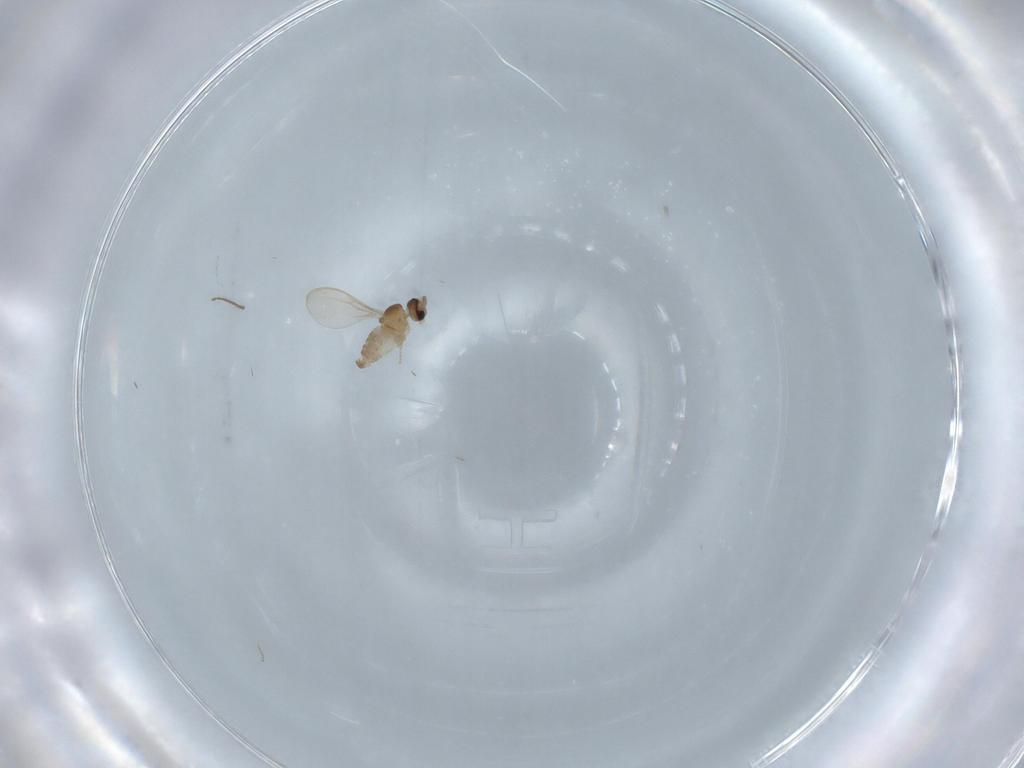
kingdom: Animalia
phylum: Arthropoda
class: Insecta
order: Diptera
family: Cecidomyiidae
